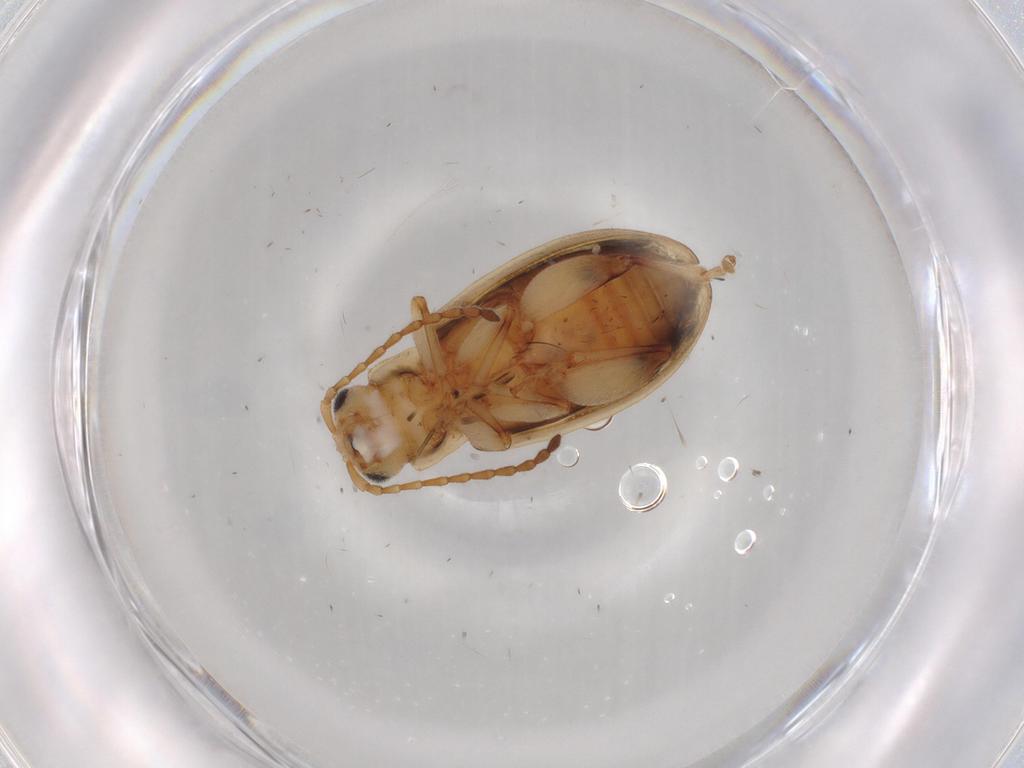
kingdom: Animalia
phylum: Arthropoda
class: Insecta
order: Coleoptera
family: Chrysomelidae
